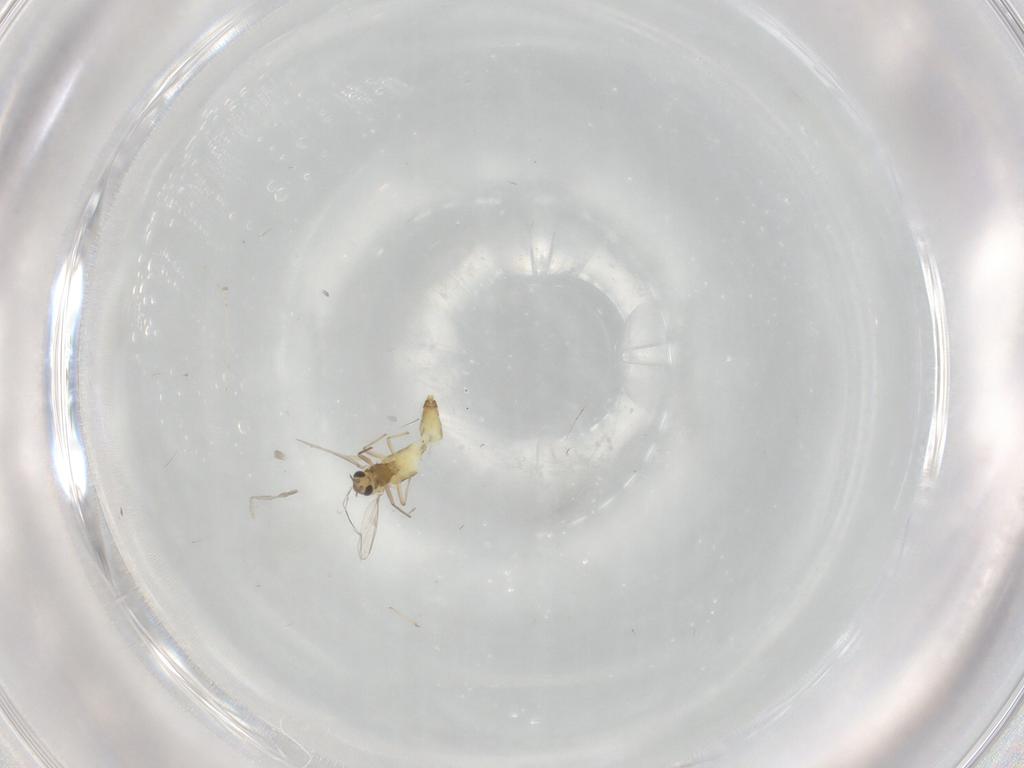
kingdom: Animalia
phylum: Arthropoda
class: Insecta
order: Diptera
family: Chironomidae
